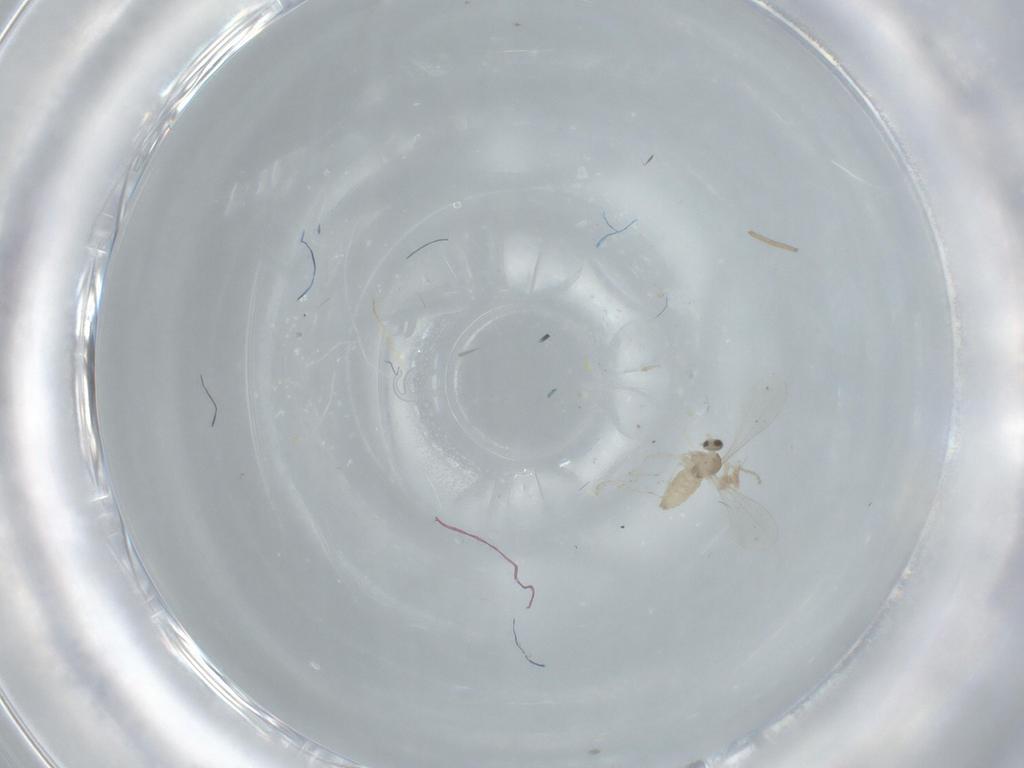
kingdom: Animalia
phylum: Arthropoda
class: Insecta
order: Diptera
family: Cecidomyiidae
